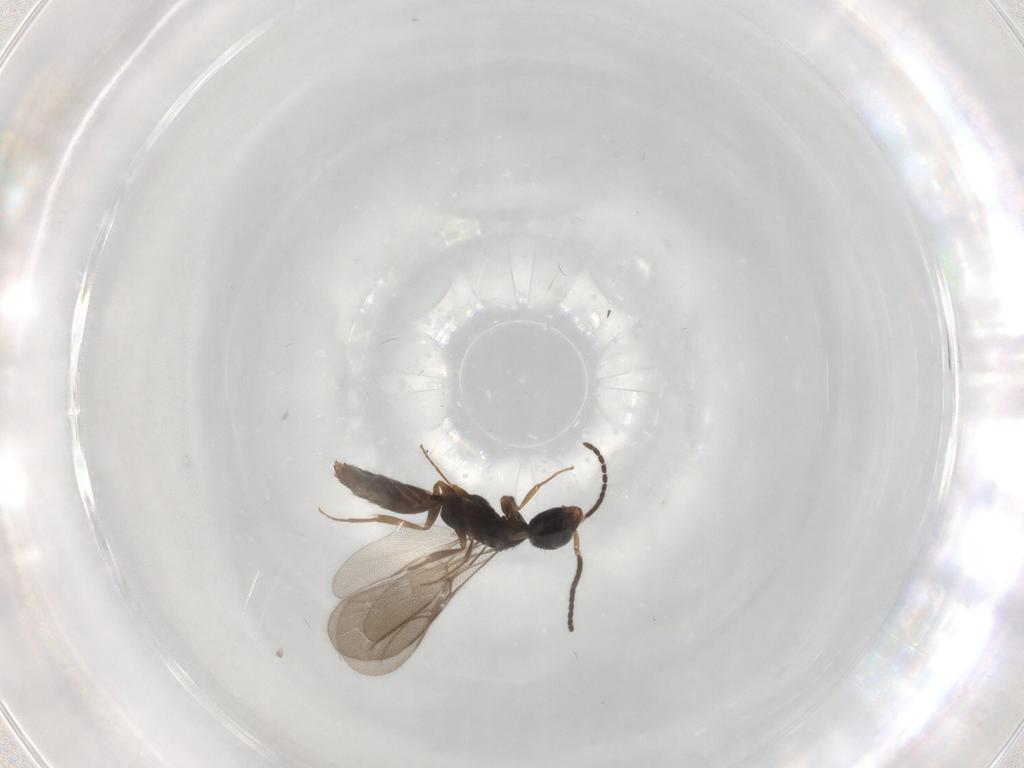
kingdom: Animalia
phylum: Arthropoda
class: Insecta
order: Hymenoptera
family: Bethylidae
